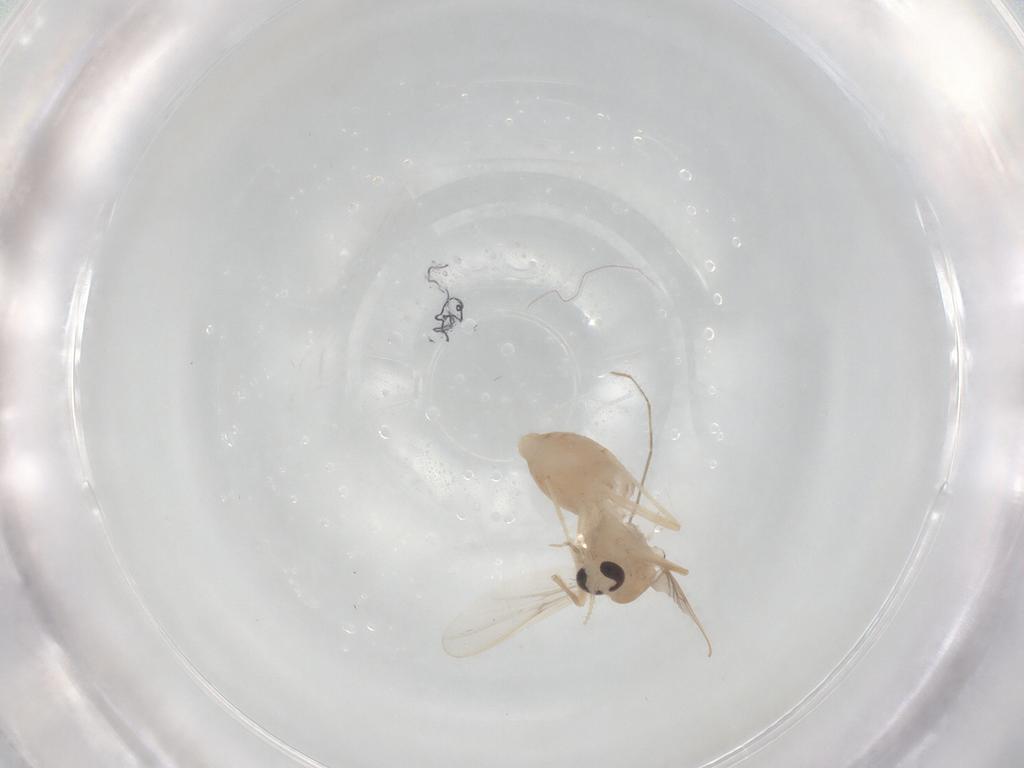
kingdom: Animalia
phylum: Arthropoda
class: Insecta
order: Diptera
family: Chironomidae
